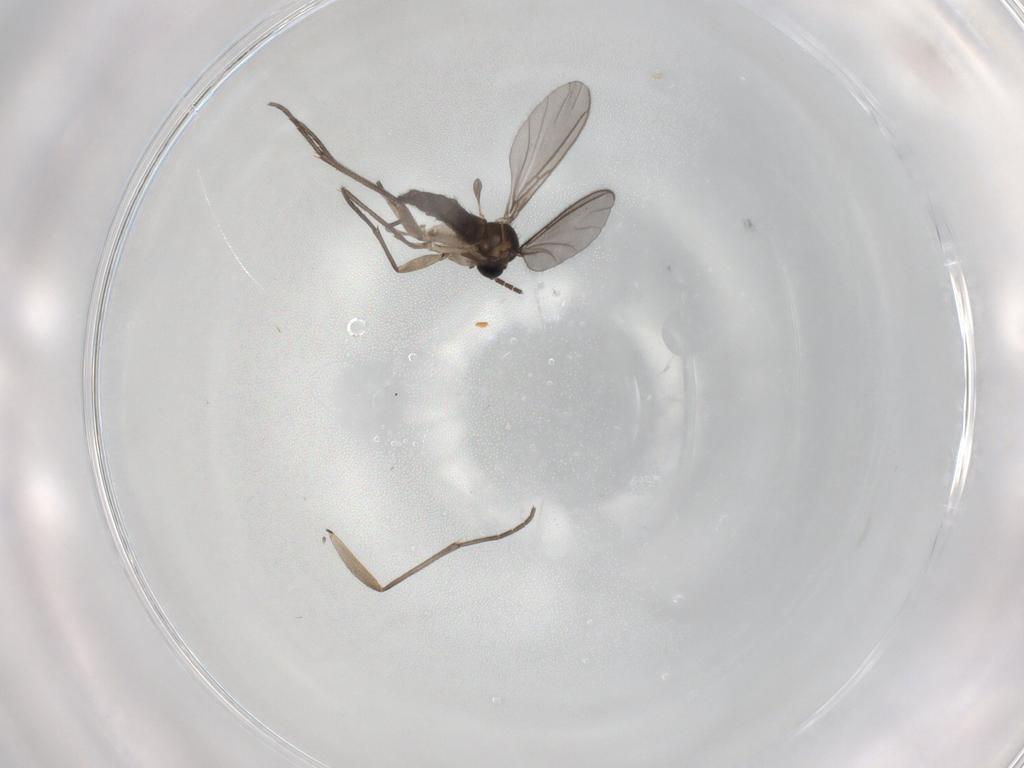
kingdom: Animalia
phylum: Arthropoda
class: Insecta
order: Diptera
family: Sciaridae
